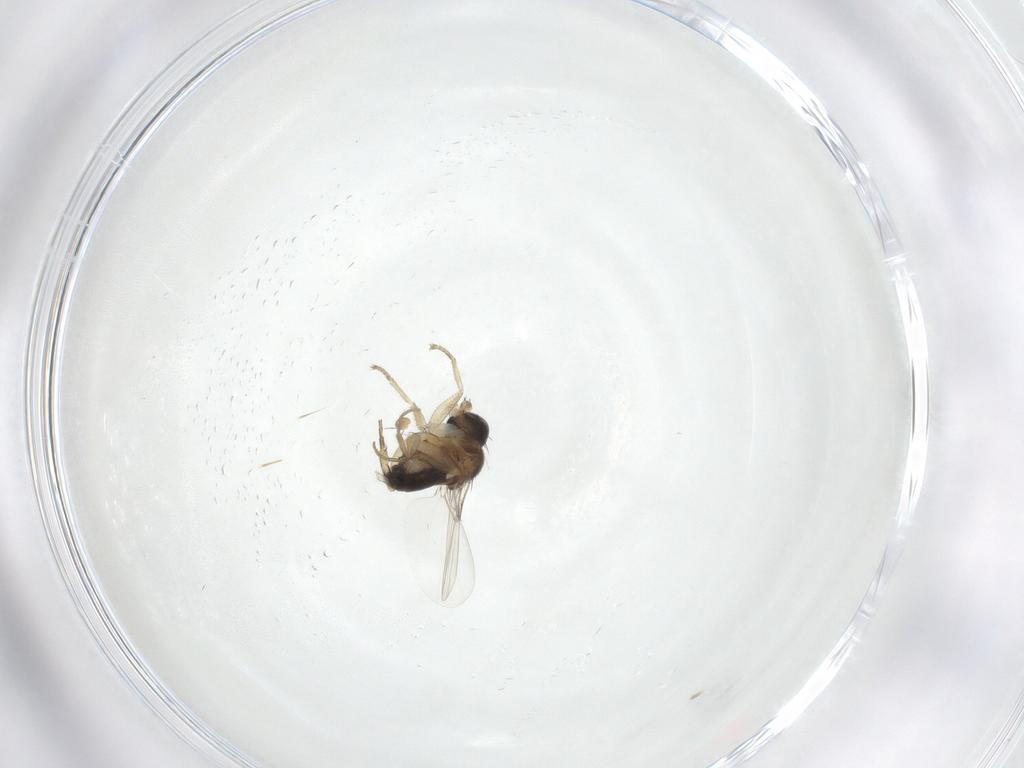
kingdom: Animalia
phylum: Arthropoda
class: Insecta
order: Diptera
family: Phoridae
